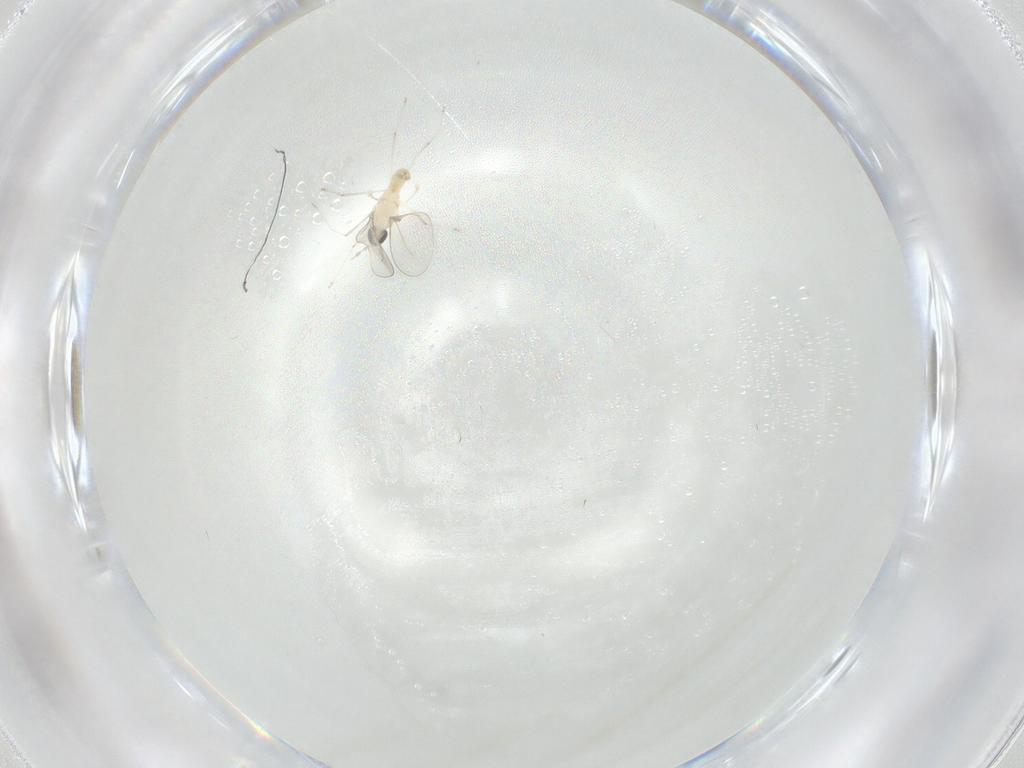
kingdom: Animalia
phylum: Arthropoda
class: Insecta
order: Diptera
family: Cecidomyiidae
